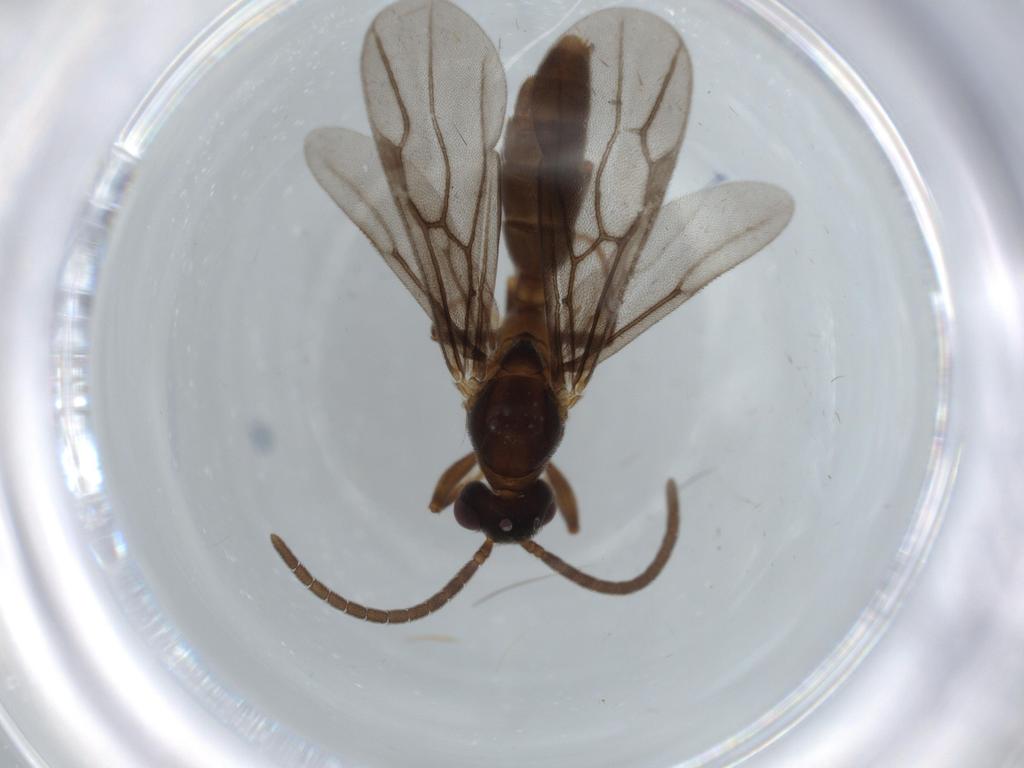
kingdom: Animalia
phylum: Arthropoda
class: Insecta
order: Hymenoptera
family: Formicidae
